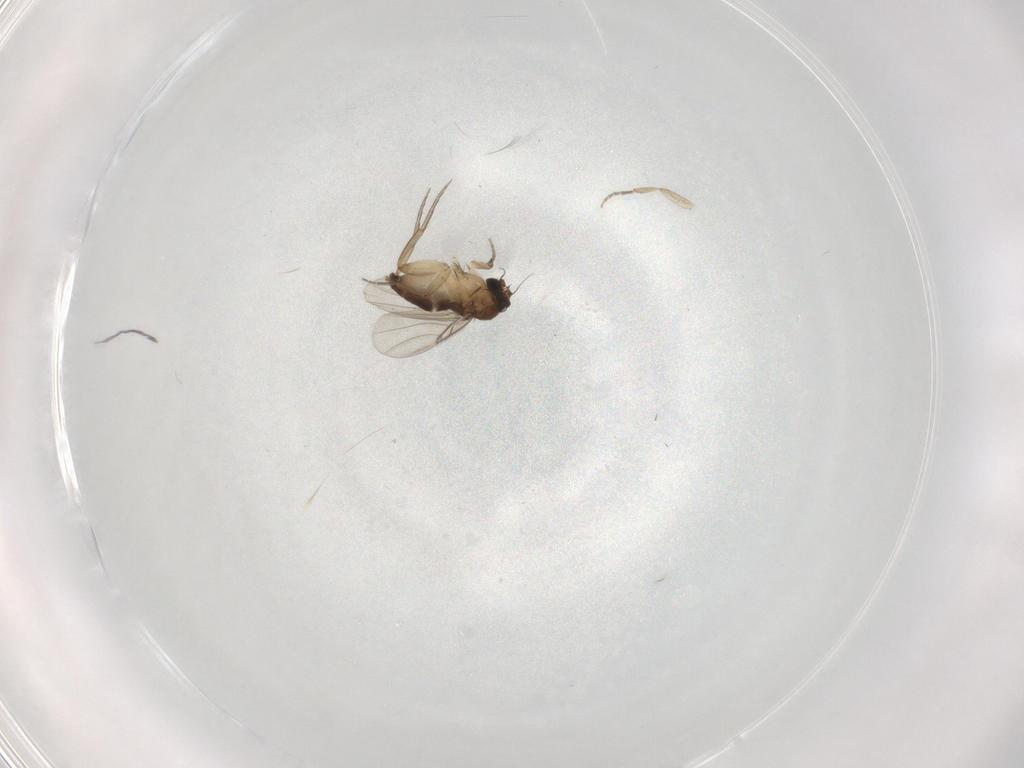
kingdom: Animalia
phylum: Arthropoda
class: Insecta
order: Diptera
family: Phoridae
